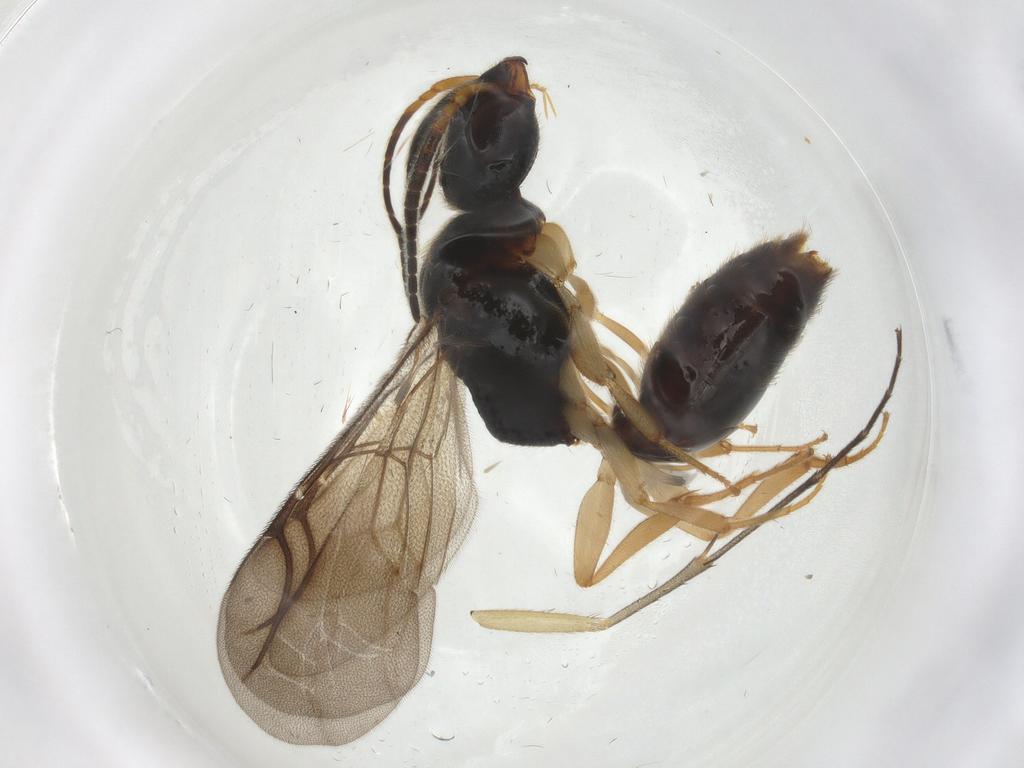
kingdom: Animalia
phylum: Arthropoda
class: Insecta
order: Hymenoptera
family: Bethylidae
